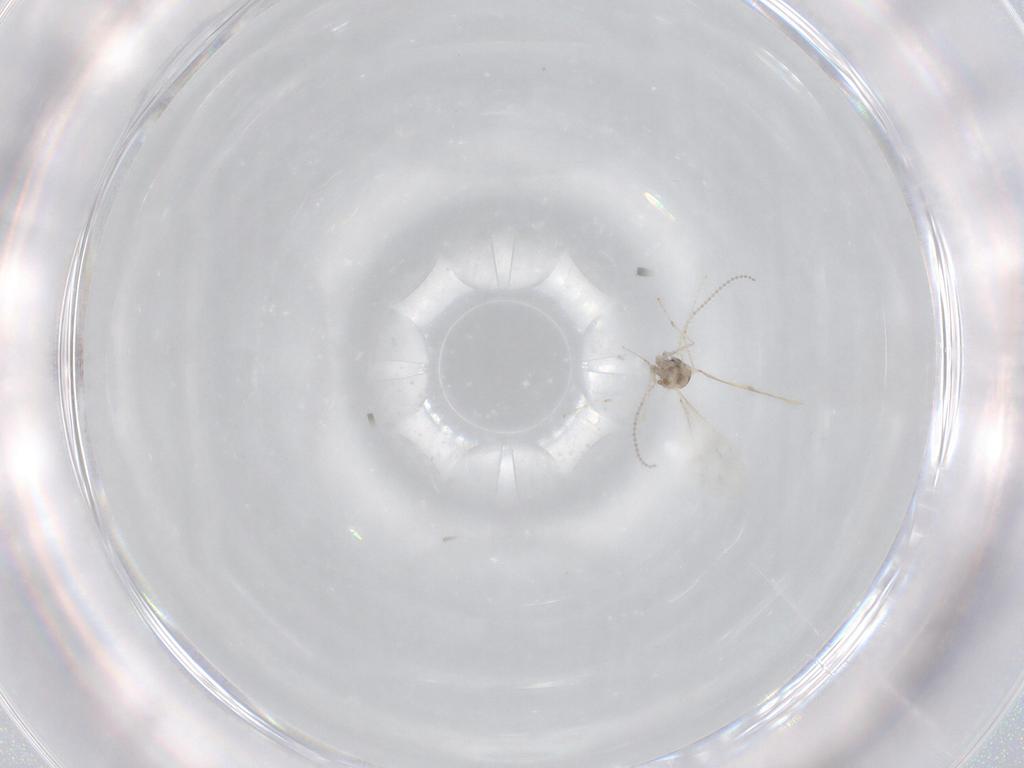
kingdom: Animalia
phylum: Arthropoda
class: Insecta
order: Diptera
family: Cecidomyiidae
